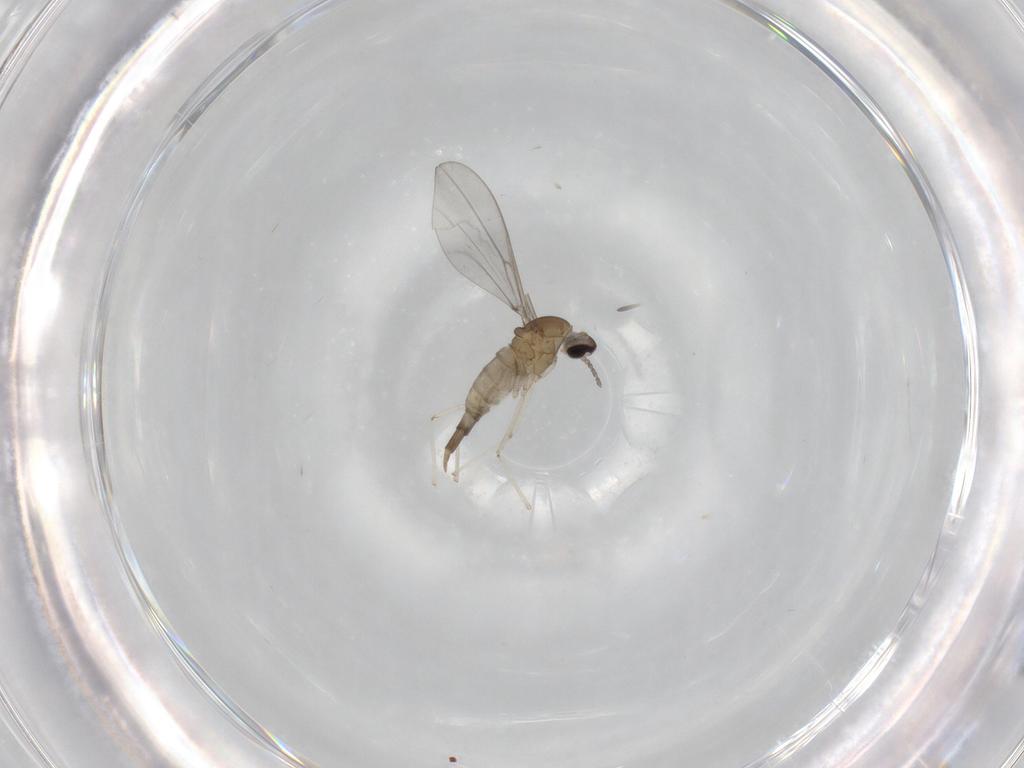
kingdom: Animalia
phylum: Arthropoda
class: Insecta
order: Diptera
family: Cecidomyiidae
